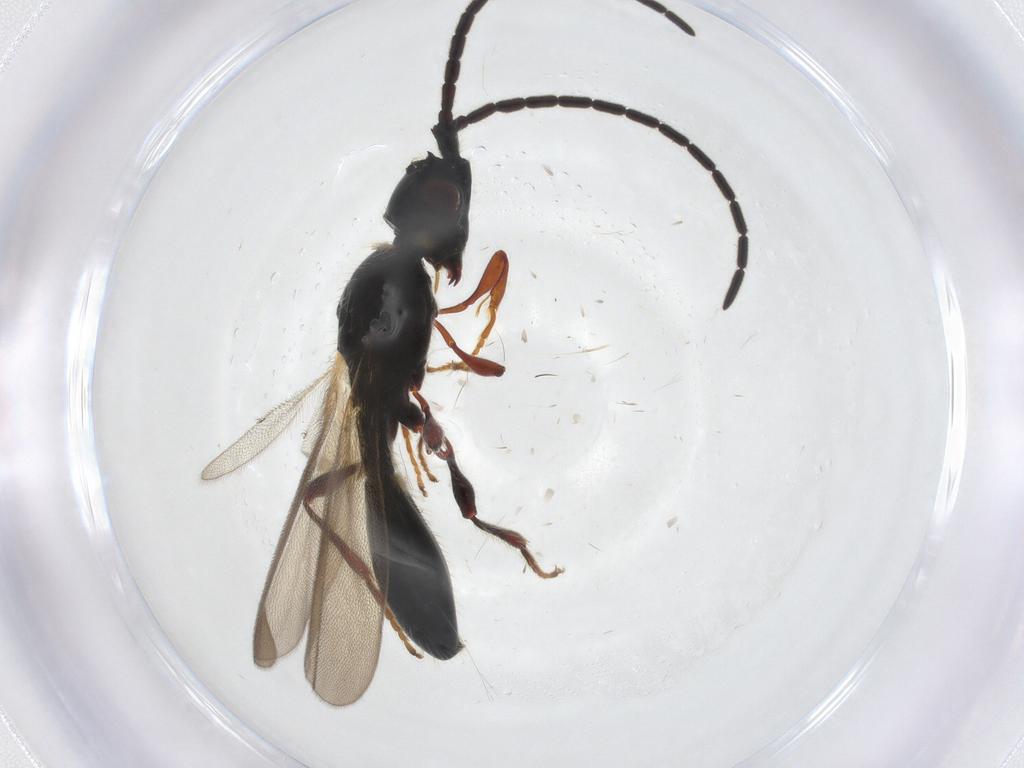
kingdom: Animalia
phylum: Arthropoda
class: Insecta
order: Hymenoptera
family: Diapriidae
